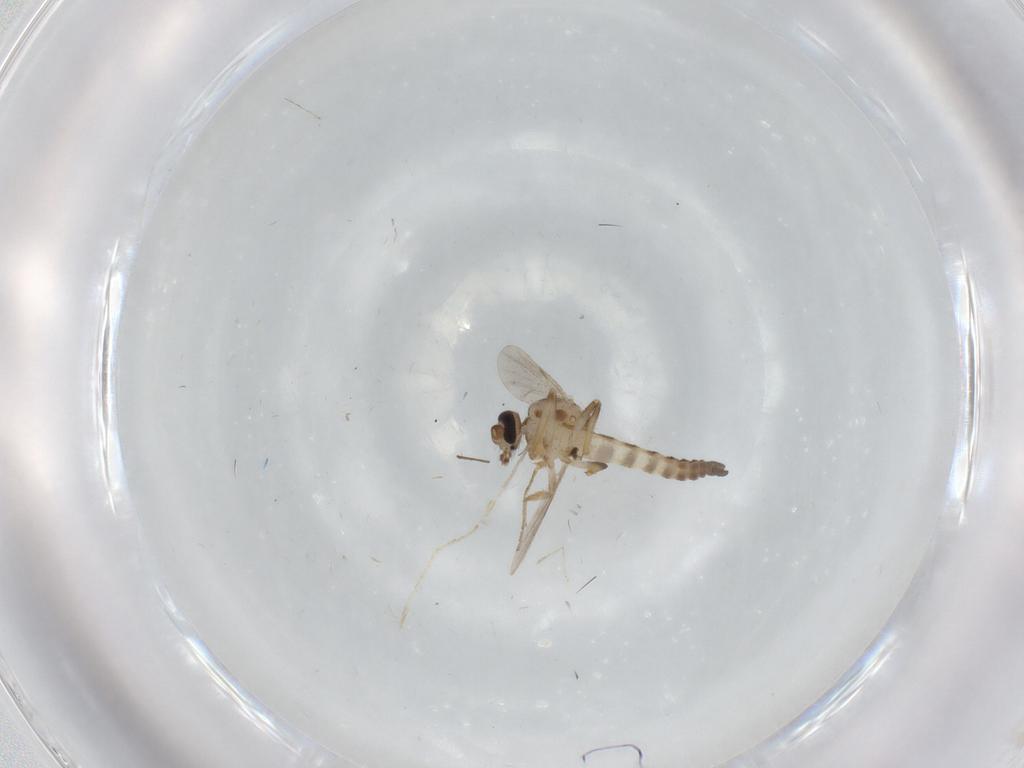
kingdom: Animalia
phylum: Arthropoda
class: Insecta
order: Diptera
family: Ceratopogonidae
